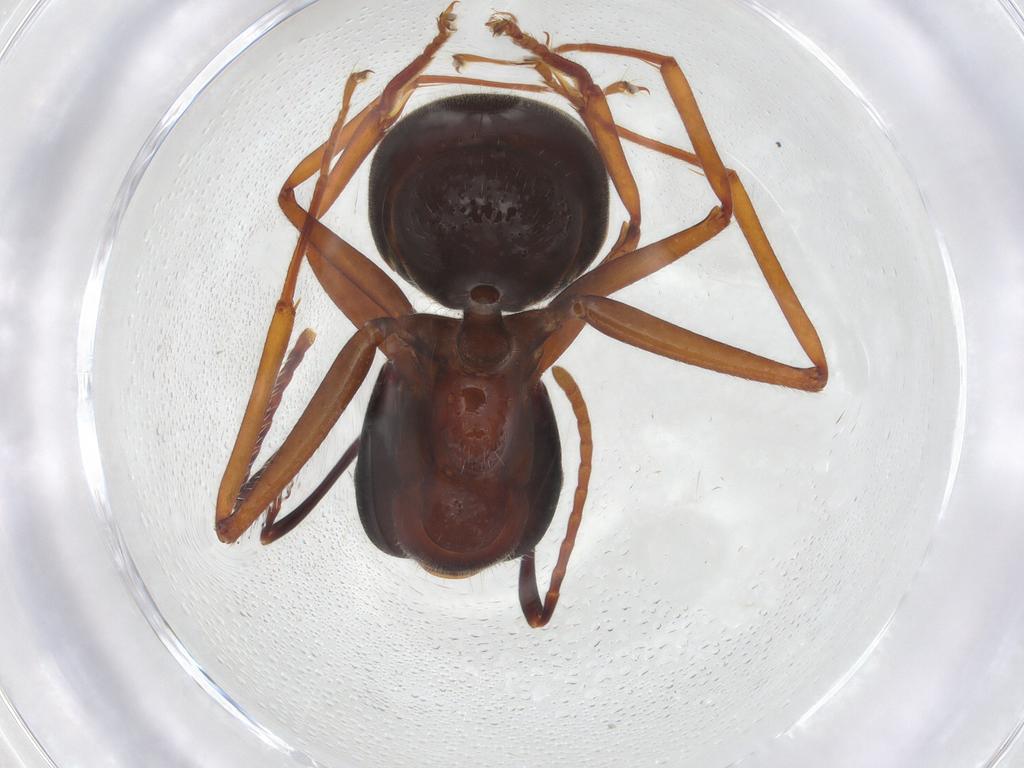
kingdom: Animalia
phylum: Arthropoda
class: Insecta
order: Hymenoptera
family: Formicidae
